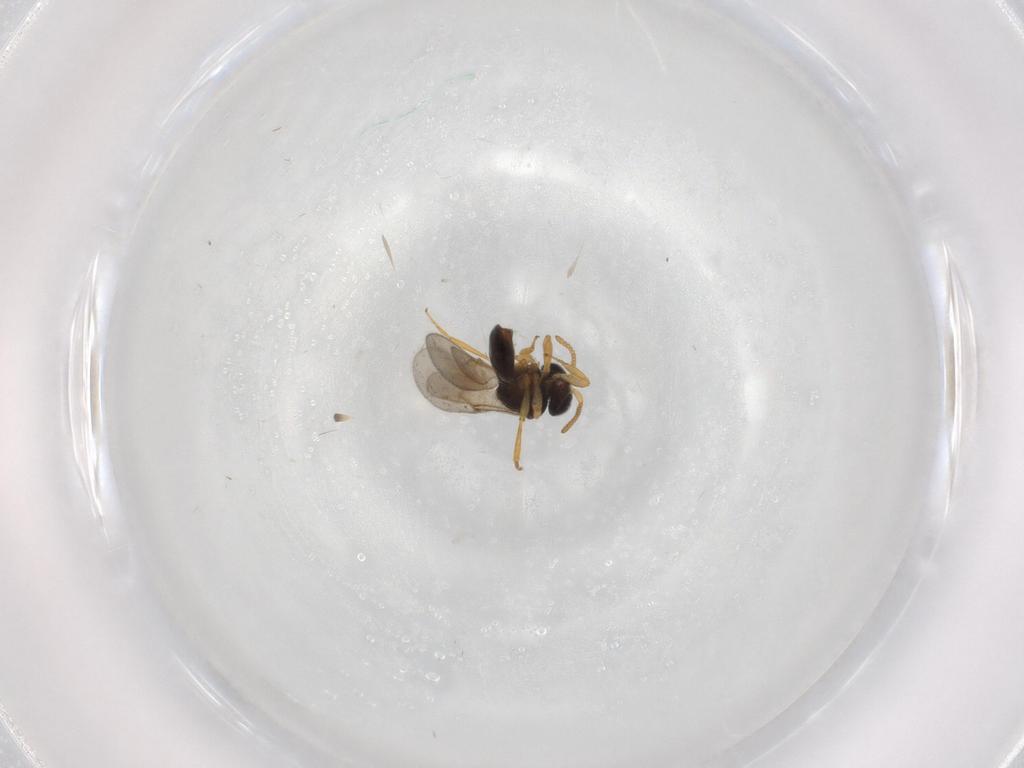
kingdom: Animalia
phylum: Arthropoda
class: Insecta
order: Hymenoptera
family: Scelionidae
